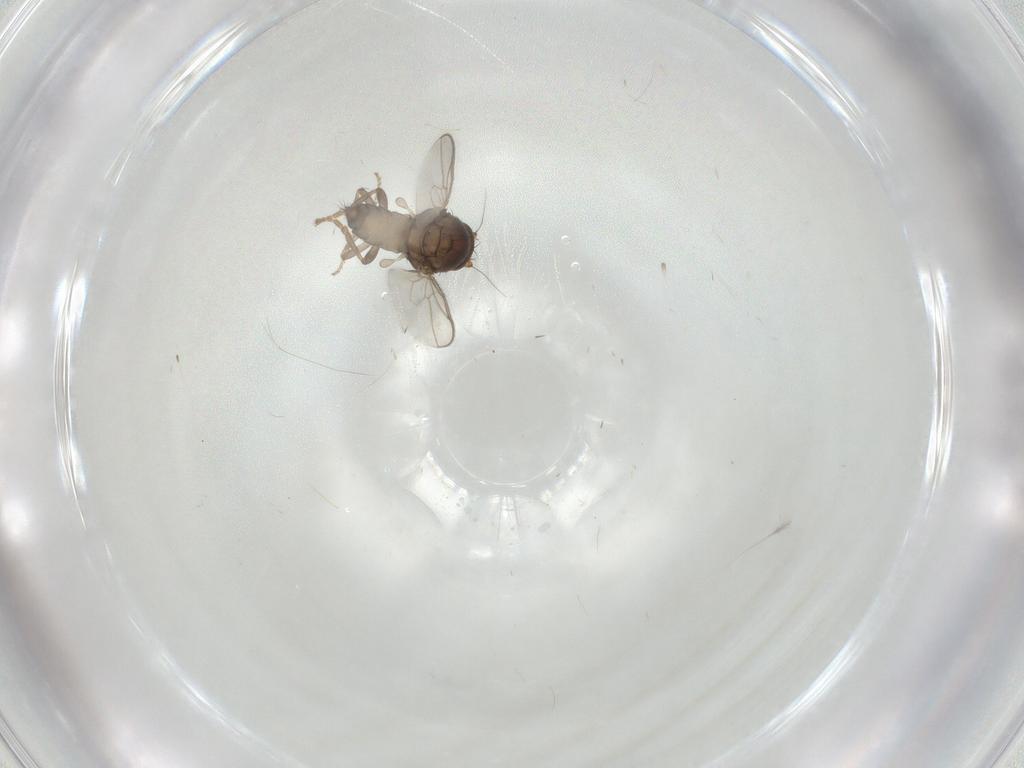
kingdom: Animalia
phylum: Arthropoda
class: Insecta
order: Diptera
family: Sphaeroceridae
